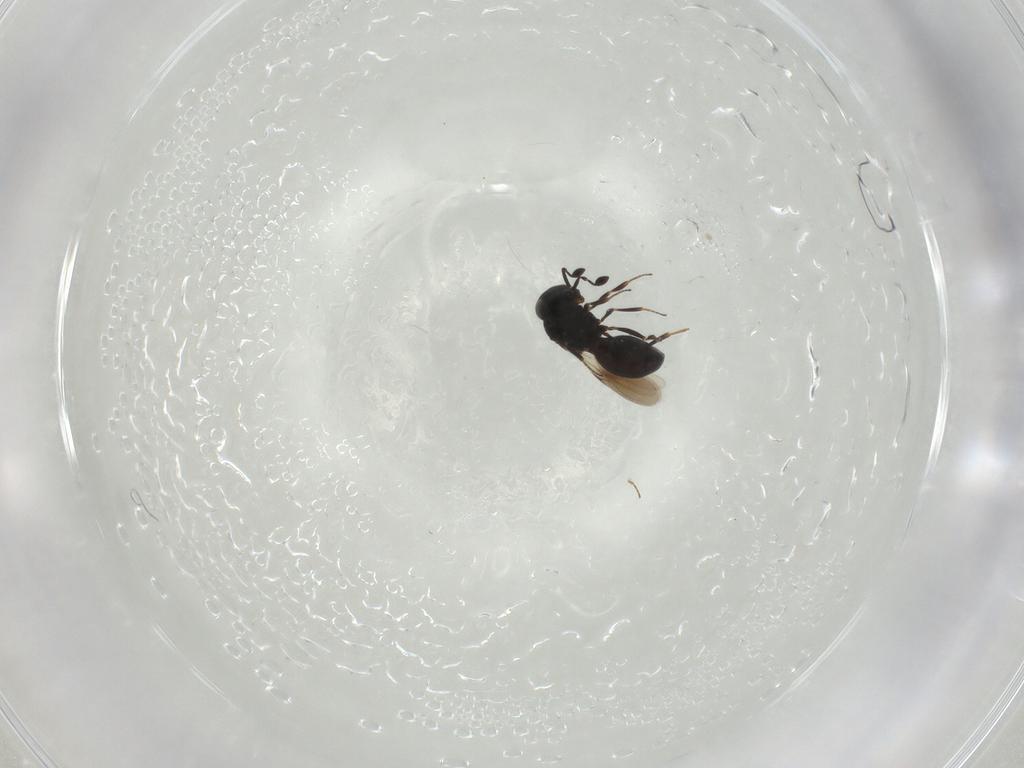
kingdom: Animalia
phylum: Arthropoda
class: Insecta
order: Hymenoptera
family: Scelionidae
